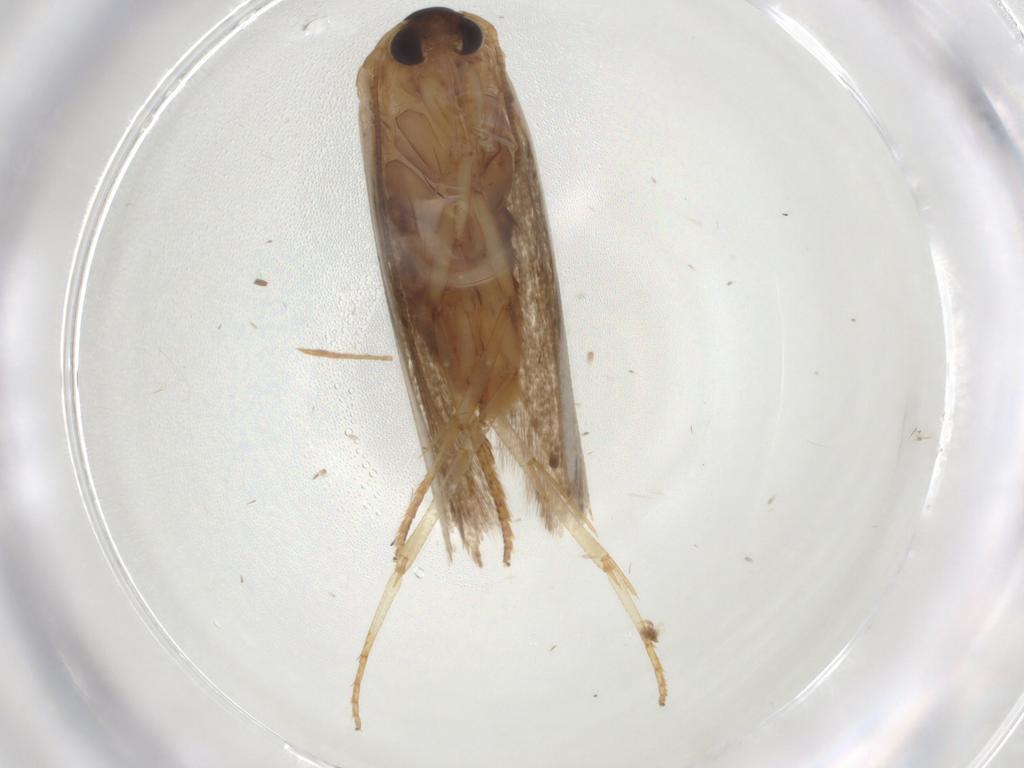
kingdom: Animalia
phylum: Arthropoda
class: Insecta
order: Lepidoptera
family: Blastobasidae
